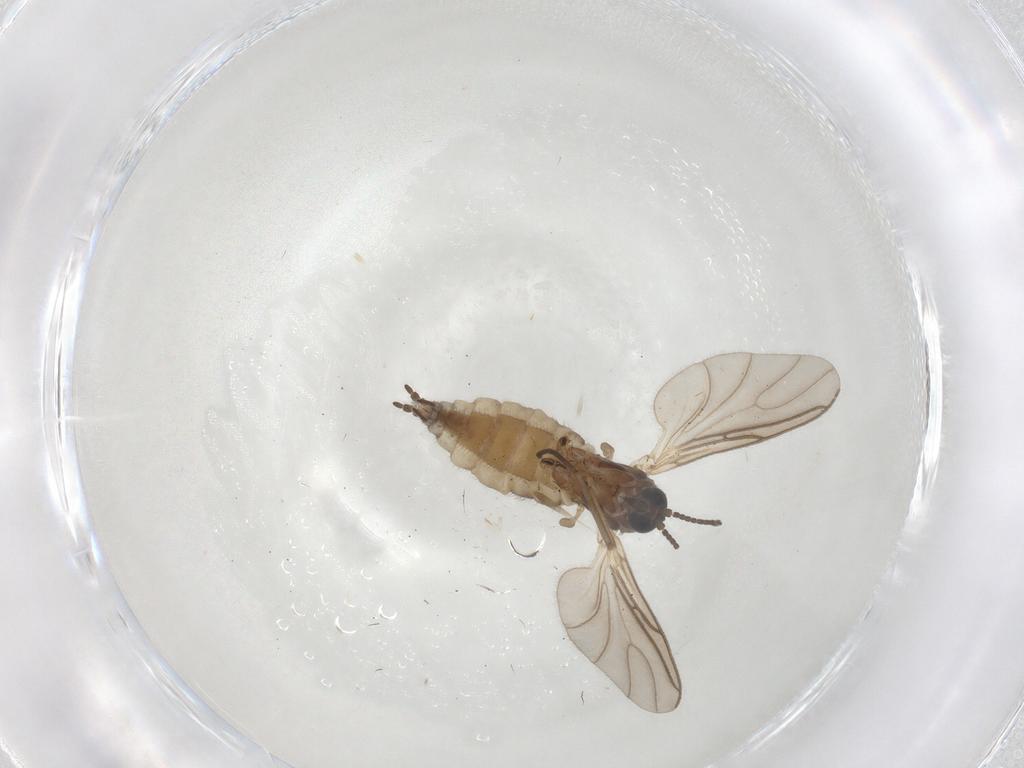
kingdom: Animalia
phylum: Arthropoda
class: Insecta
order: Diptera
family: Sciaridae
